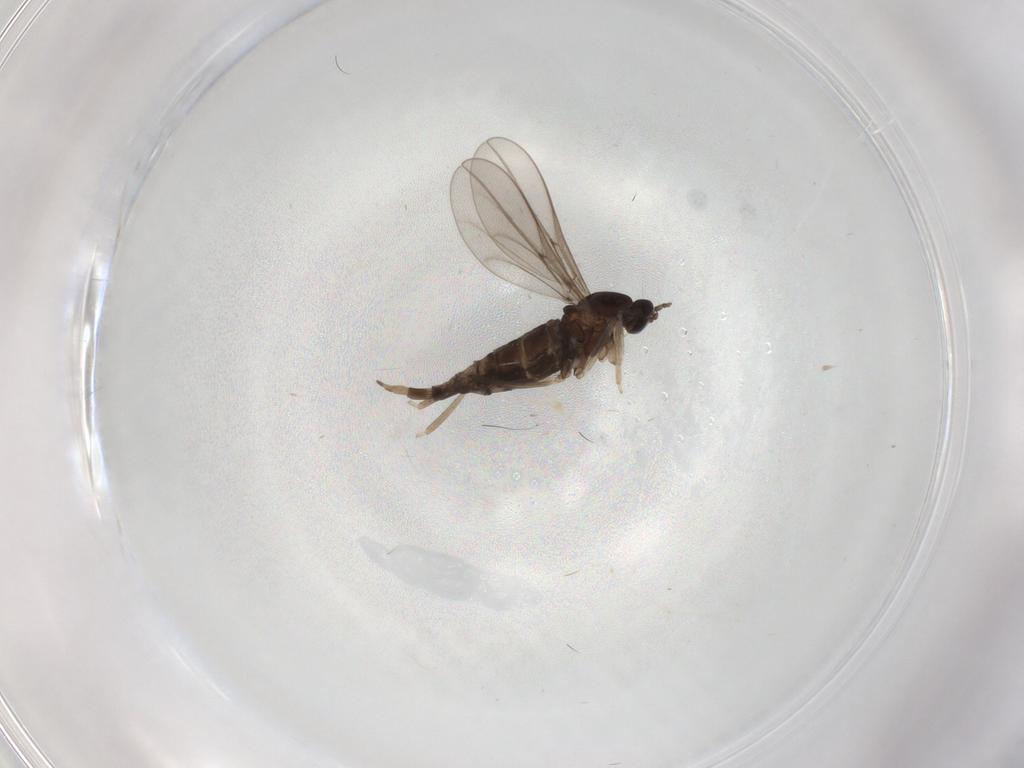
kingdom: Animalia
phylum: Arthropoda
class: Insecta
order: Diptera
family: Cecidomyiidae
